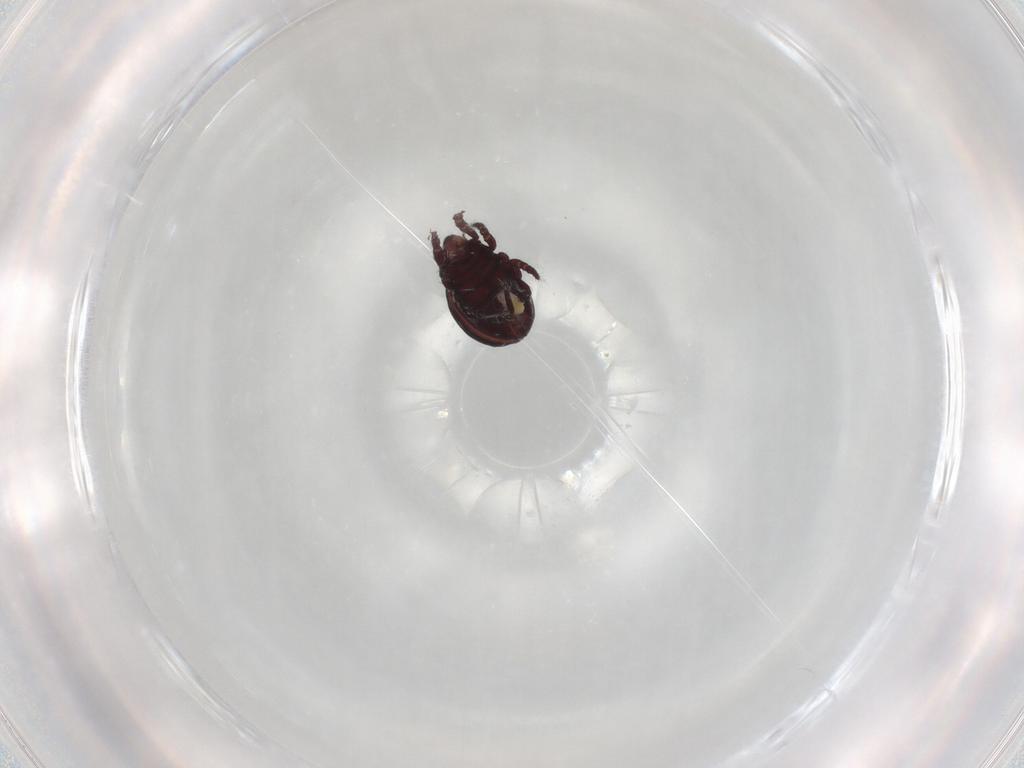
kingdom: Animalia
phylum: Arthropoda
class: Arachnida
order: Sarcoptiformes
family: Hermanniidae
